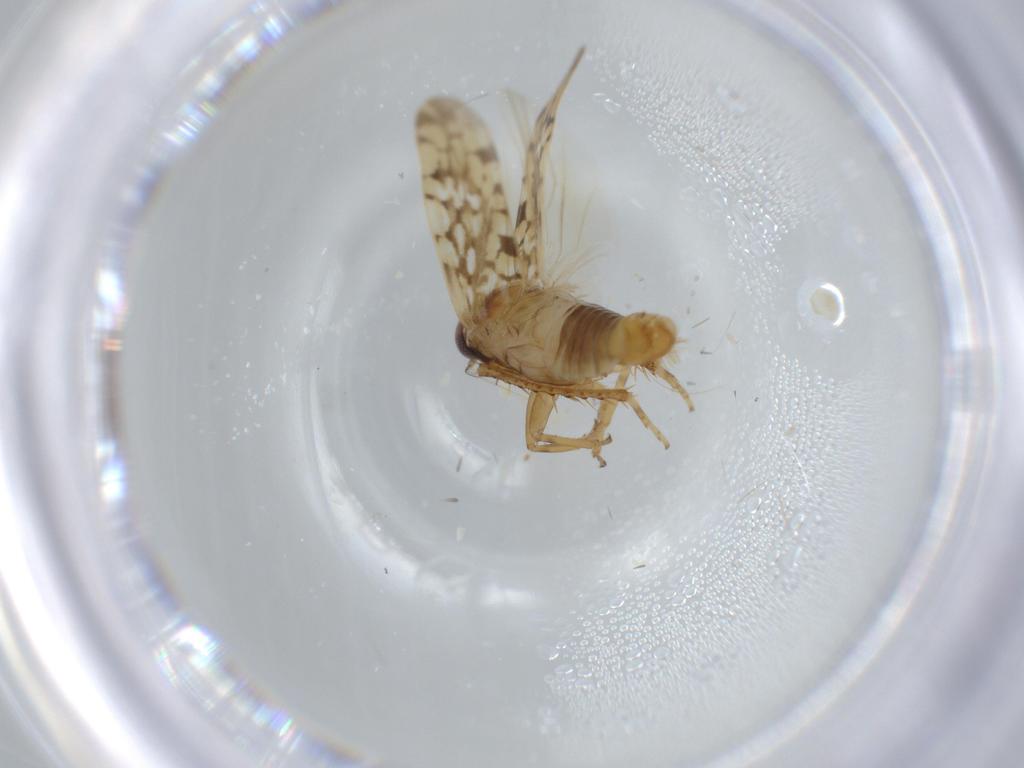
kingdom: Animalia
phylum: Arthropoda
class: Insecta
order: Hemiptera
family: Cicadellidae
